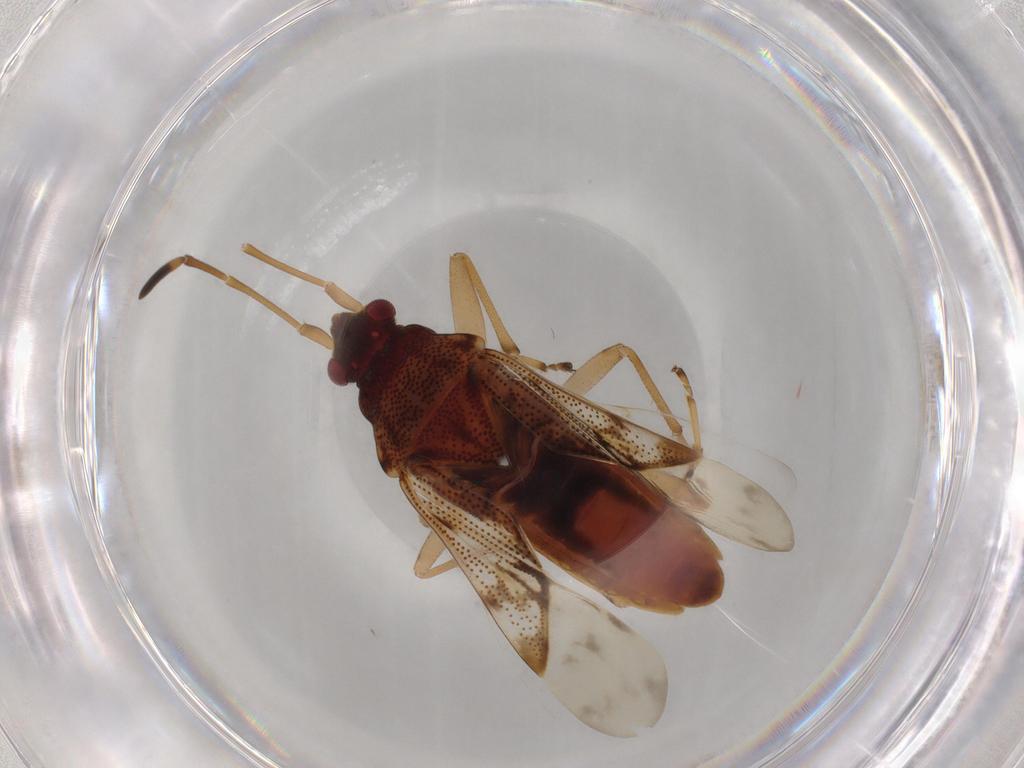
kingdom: Animalia
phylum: Arthropoda
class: Insecta
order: Hemiptera
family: Rhyparochromidae
